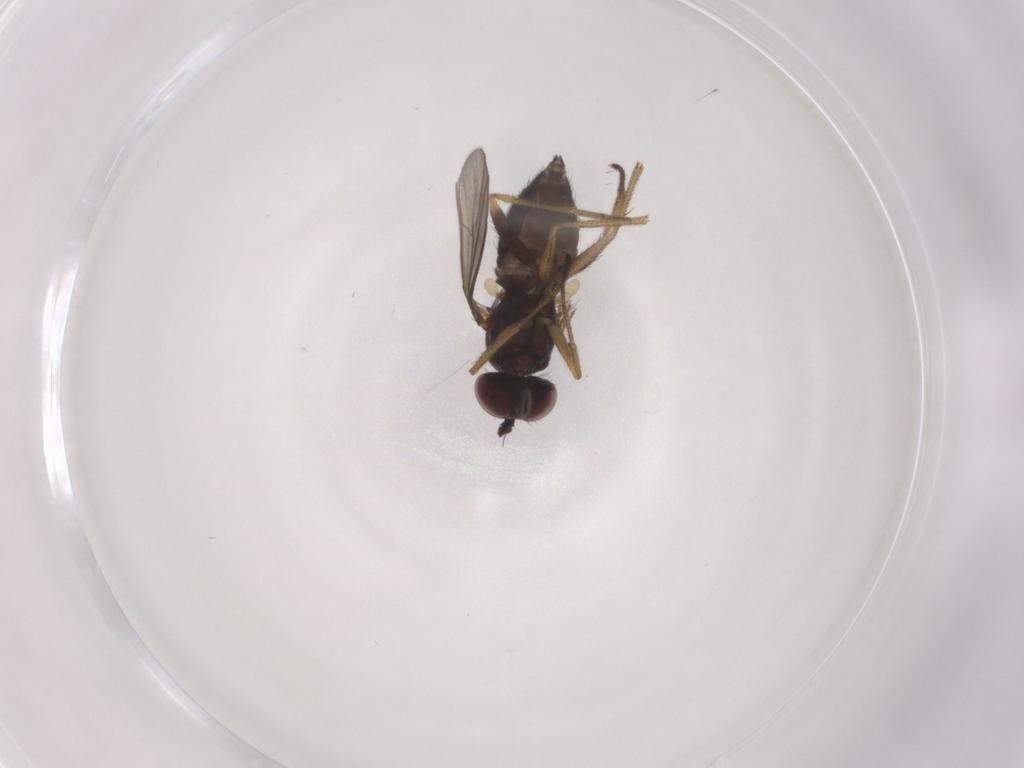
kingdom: Animalia
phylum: Arthropoda
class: Insecta
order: Diptera
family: Dolichopodidae
